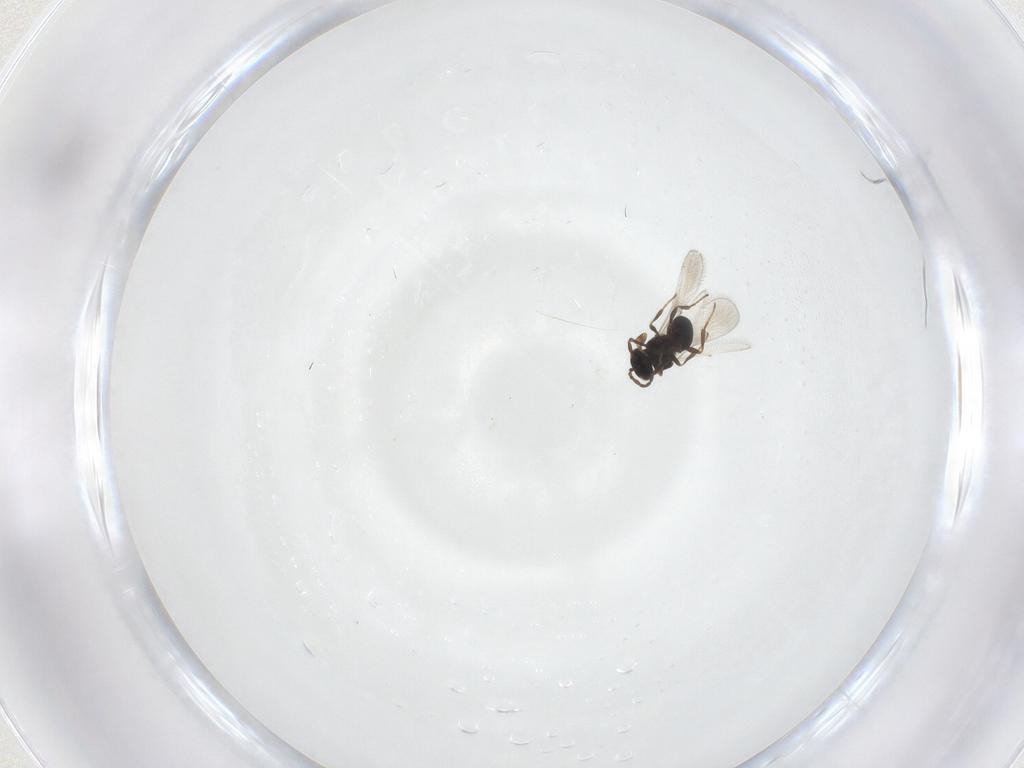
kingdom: Animalia
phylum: Arthropoda
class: Insecta
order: Hymenoptera
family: Platygastridae
